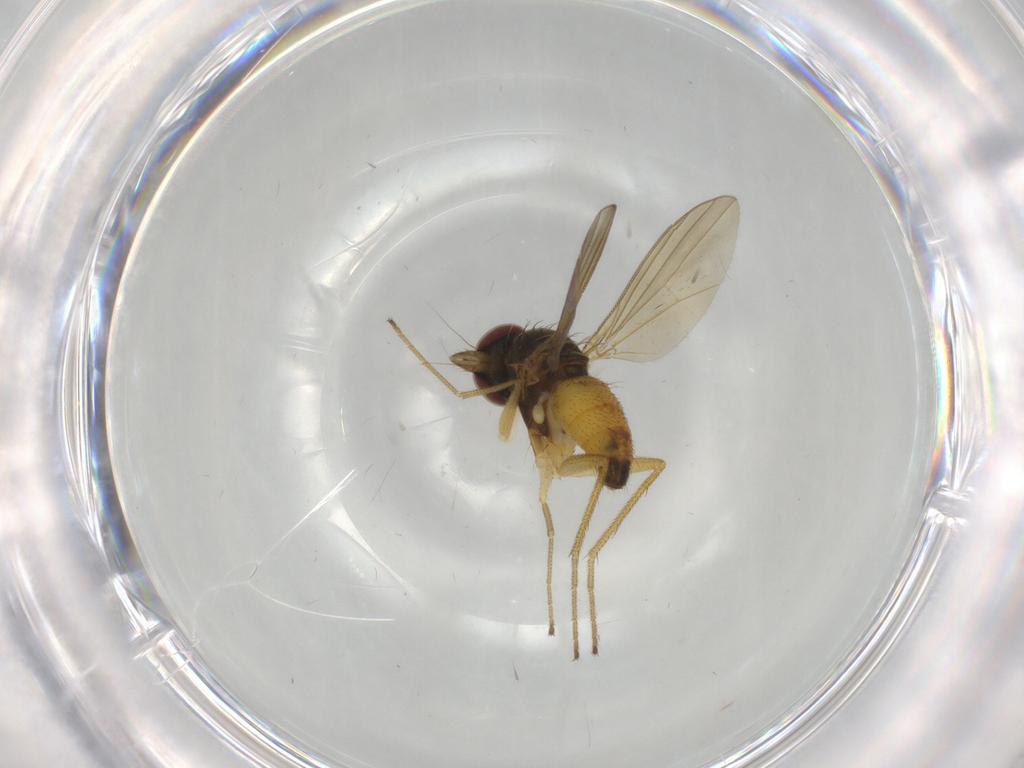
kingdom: Animalia
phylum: Arthropoda
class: Insecta
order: Diptera
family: Dolichopodidae
